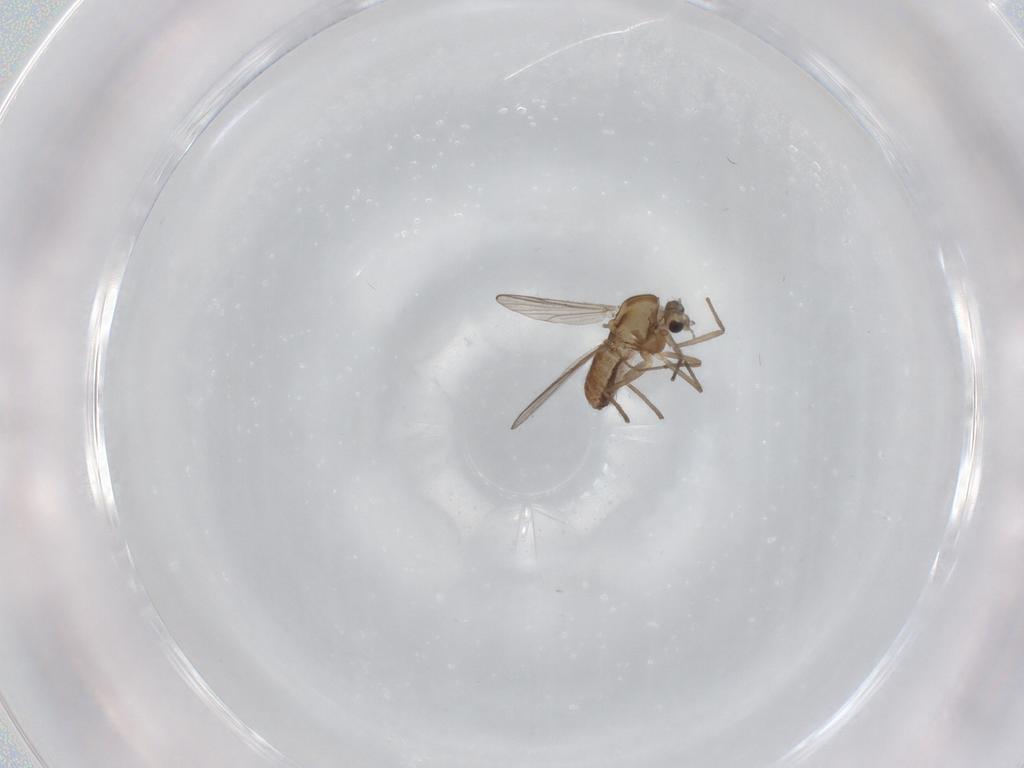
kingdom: Animalia
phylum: Arthropoda
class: Insecta
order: Diptera
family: Chironomidae
